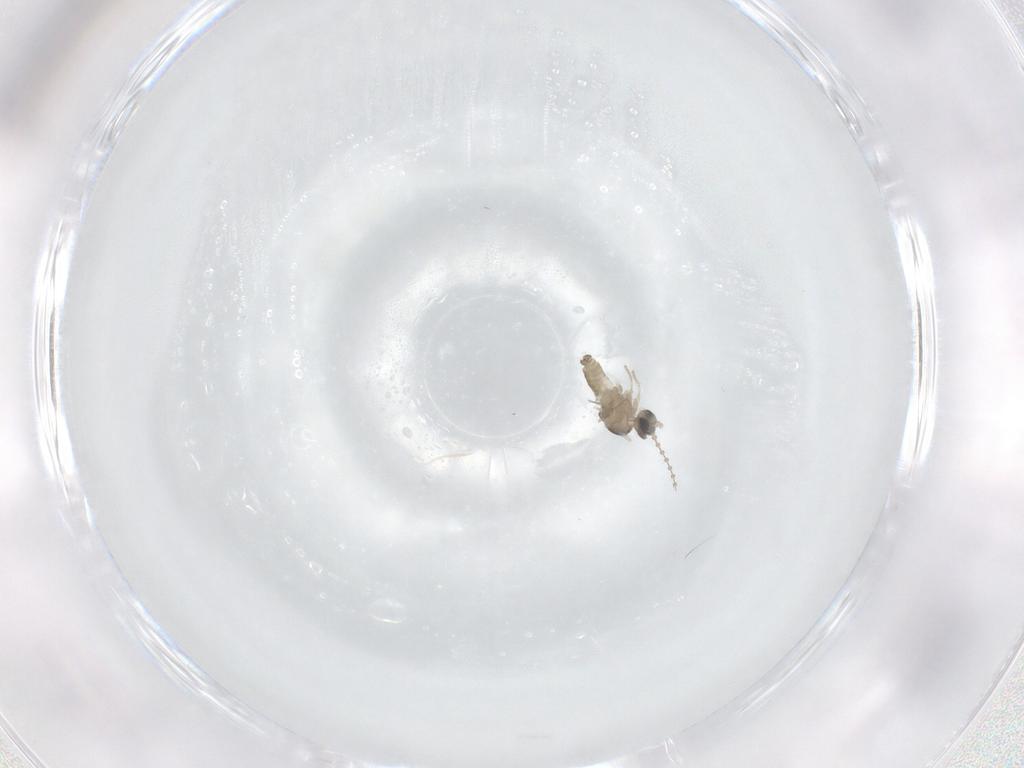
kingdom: Animalia
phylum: Arthropoda
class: Insecta
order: Diptera
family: Cecidomyiidae
